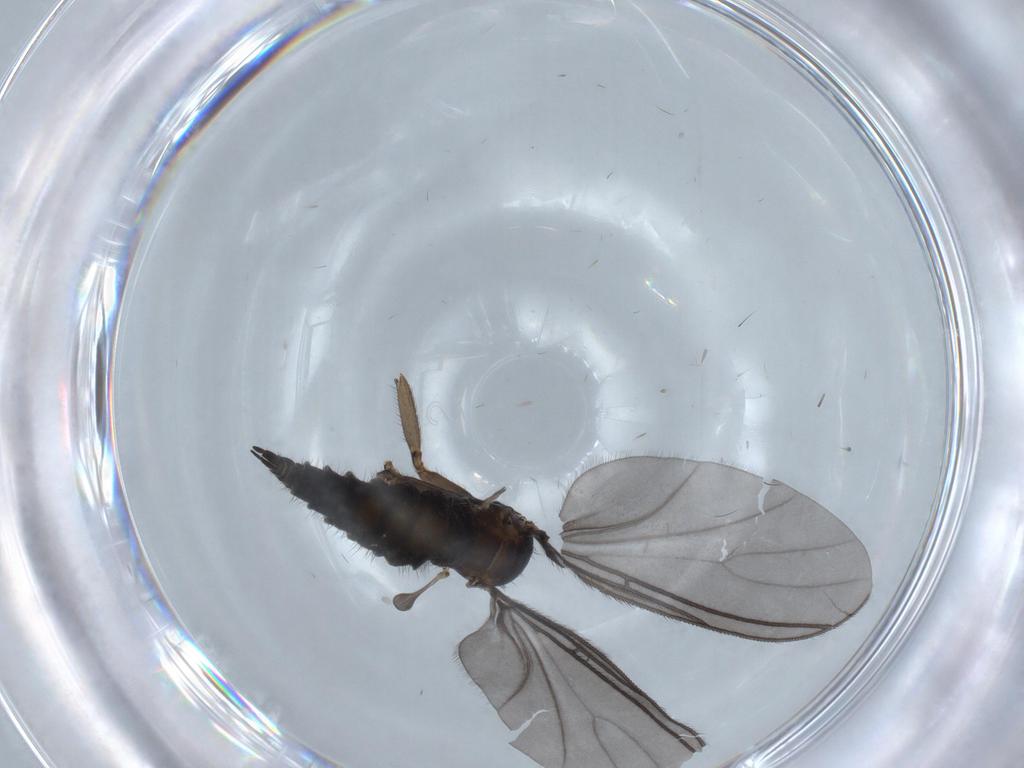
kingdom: Animalia
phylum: Arthropoda
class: Insecta
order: Diptera
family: Sciaridae
